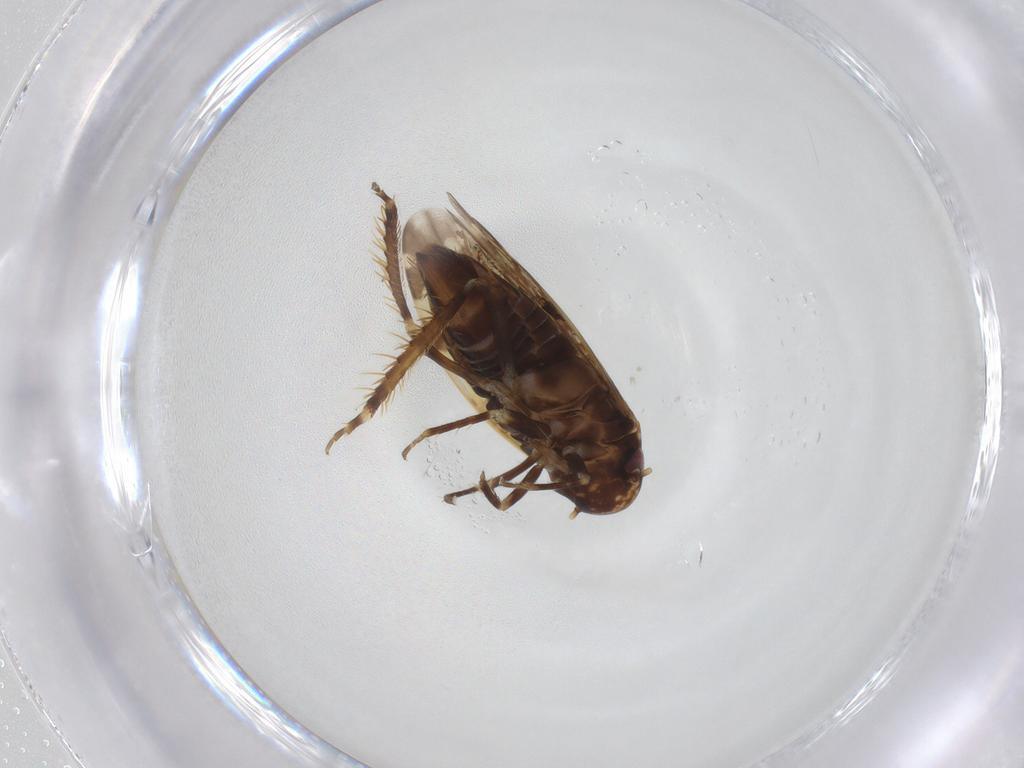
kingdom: Animalia
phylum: Arthropoda
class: Insecta
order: Hemiptera
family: Cicadellidae
